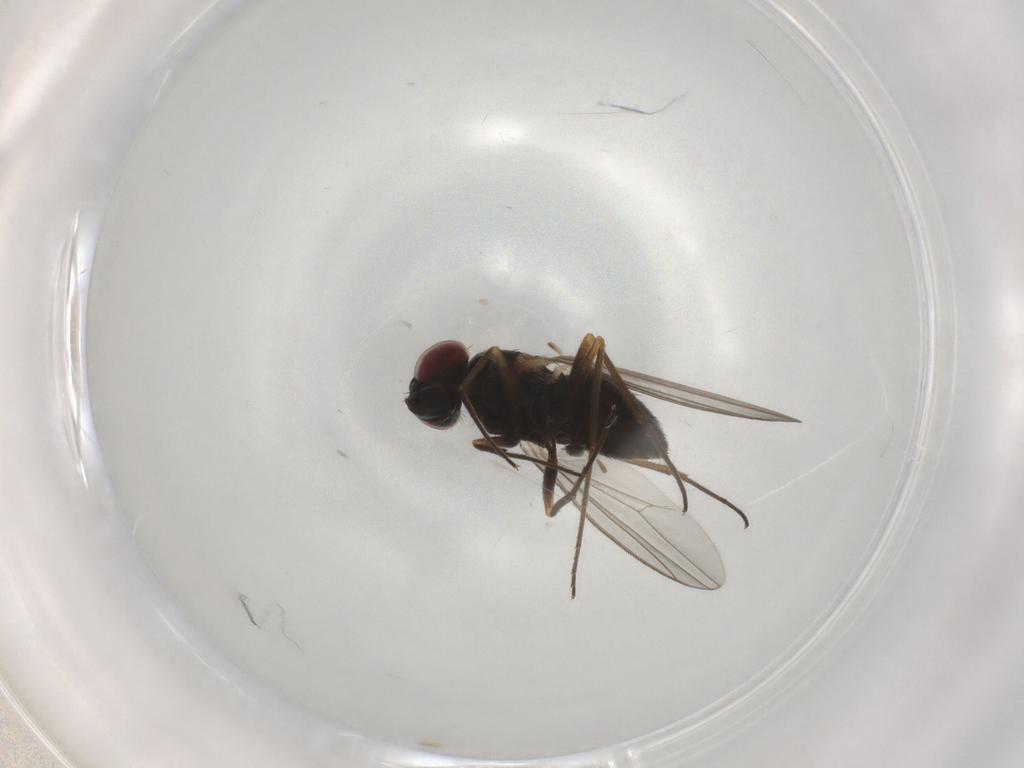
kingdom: Animalia
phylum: Arthropoda
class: Insecta
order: Diptera
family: Dolichopodidae
